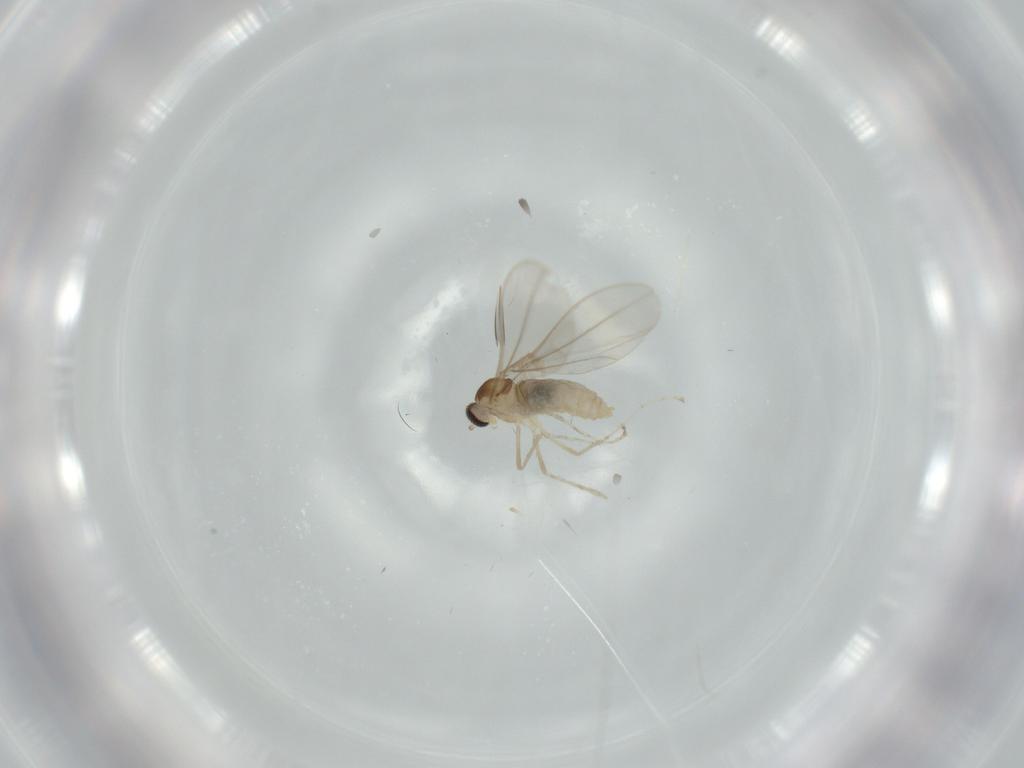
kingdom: Animalia
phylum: Arthropoda
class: Insecta
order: Diptera
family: Cecidomyiidae
